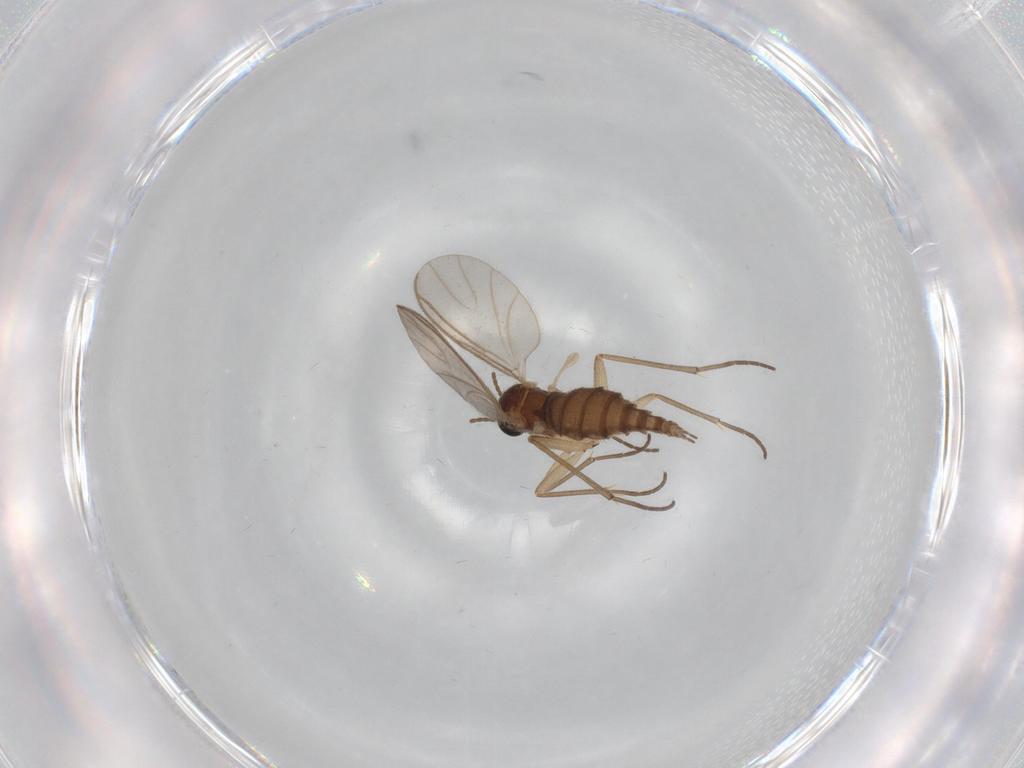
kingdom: Animalia
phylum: Arthropoda
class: Insecta
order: Diptera
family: Sciaridae
